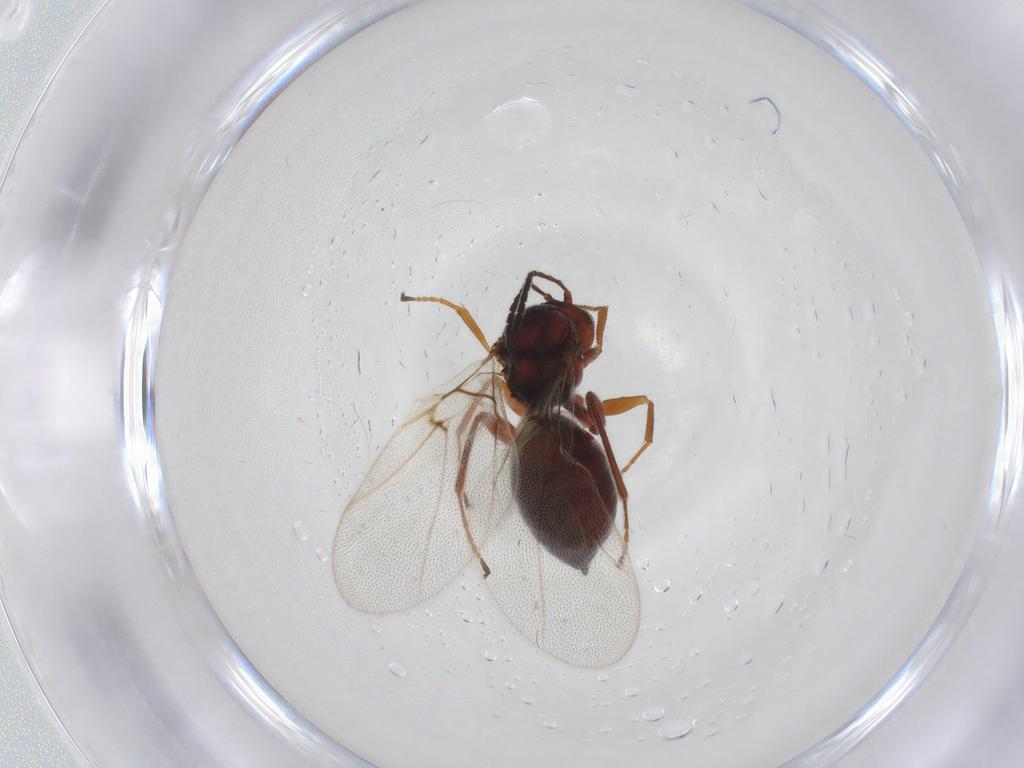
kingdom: Animalia
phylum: Arthropoda
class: Insecta
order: Hymenoptera
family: Cynipidae
